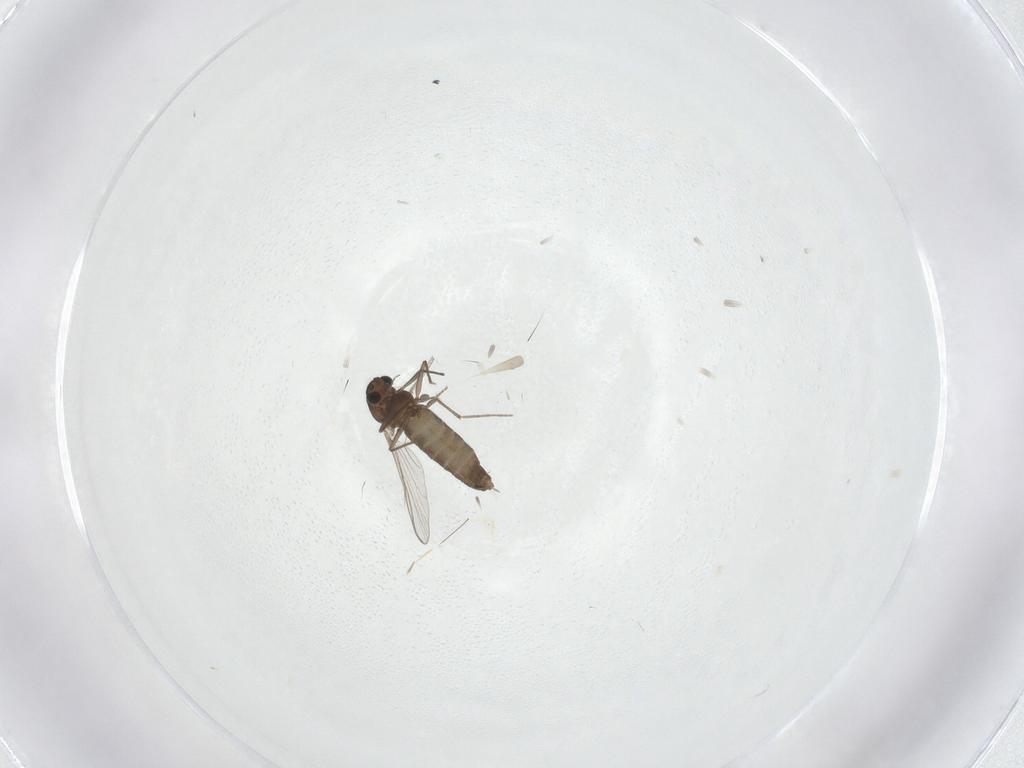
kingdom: Animalia
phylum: Arthropoda
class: Insecta
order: Diptera
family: Chironomidae
